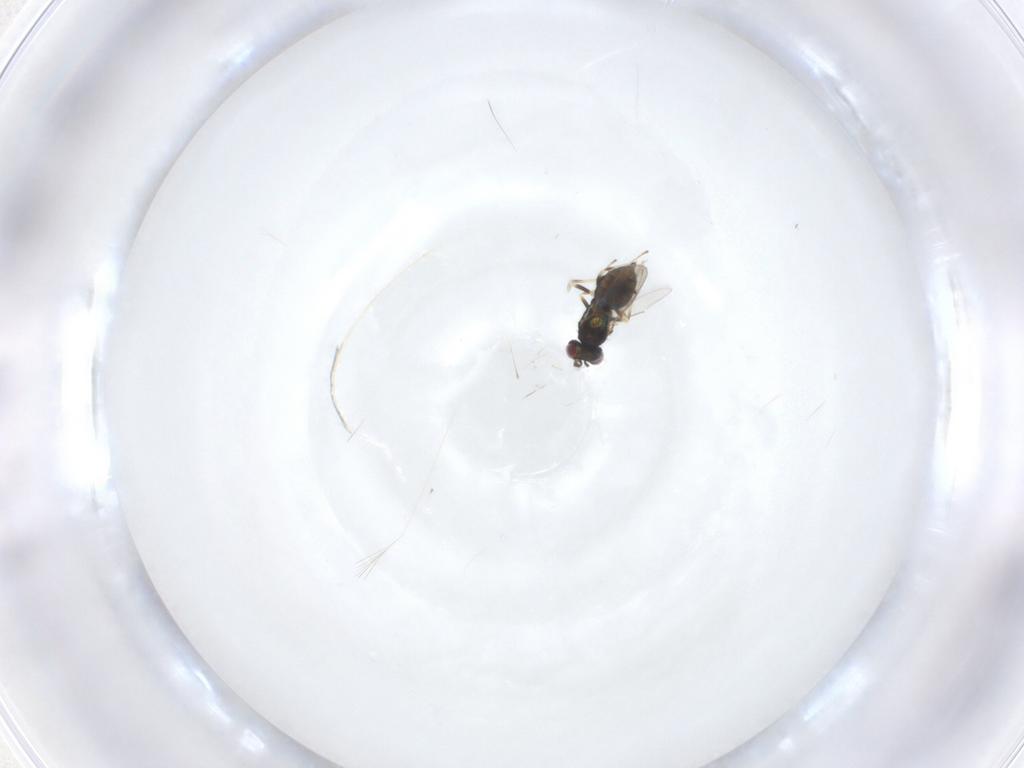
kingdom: Animalia
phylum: Arthropoda
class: Insecta
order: Hymenoptera
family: Eulophidae
